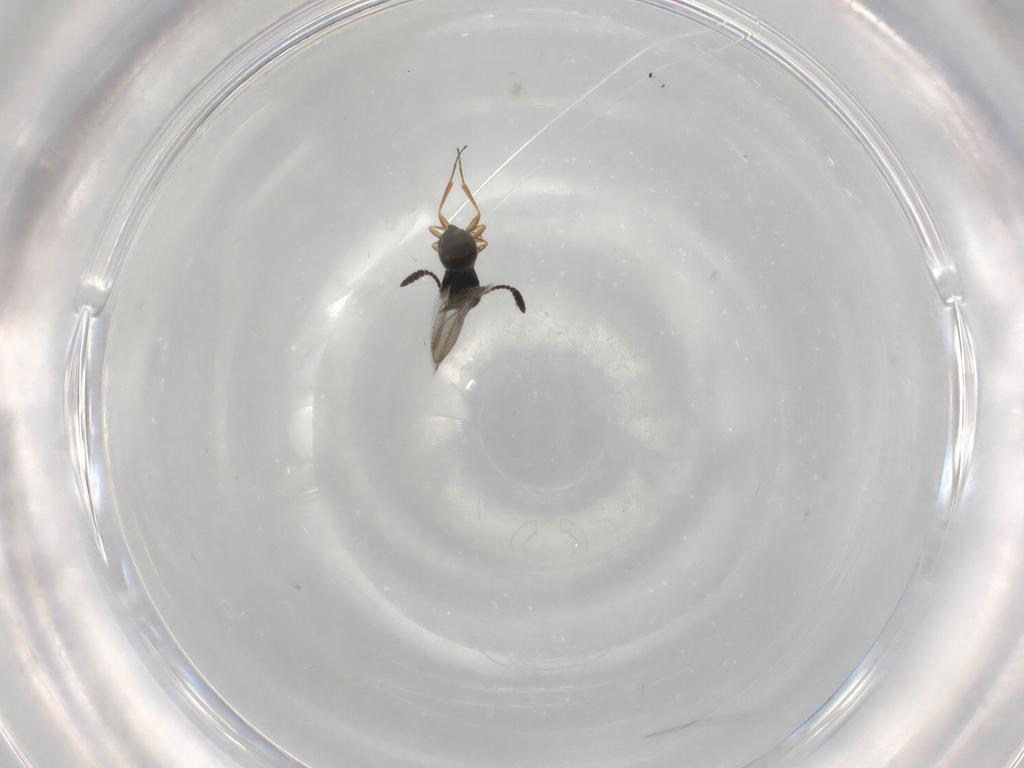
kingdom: Animalia
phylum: Arthropoda
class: Insecta
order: Hymenoptera
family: Scelionidae
